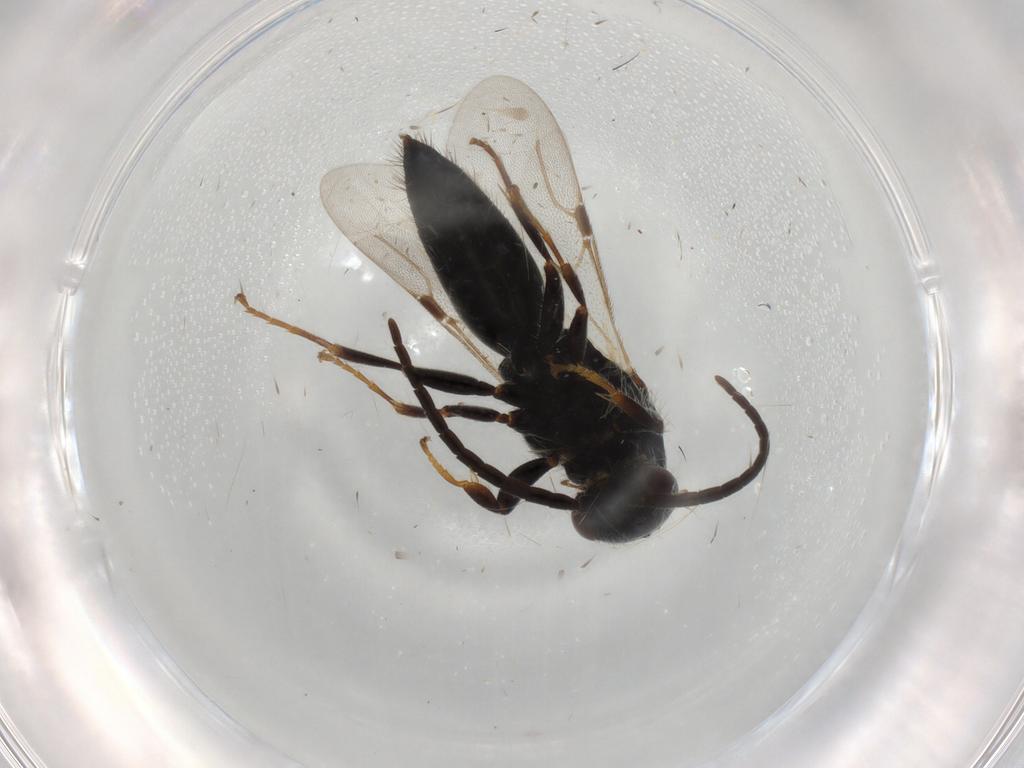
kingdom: Animalia
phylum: Arthropoda
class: Insecta
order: Hymenoptera
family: Bethylidae
